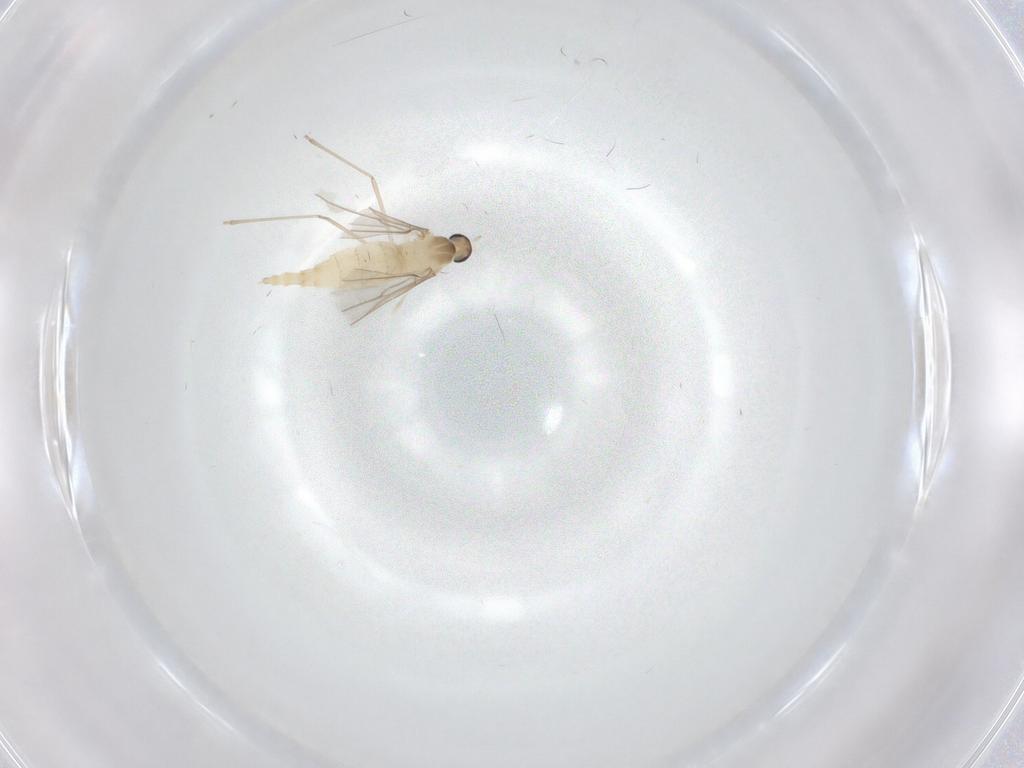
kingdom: Animalia
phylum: Arthropoda
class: Insecta
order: Diptera
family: Cecidomyiidae
